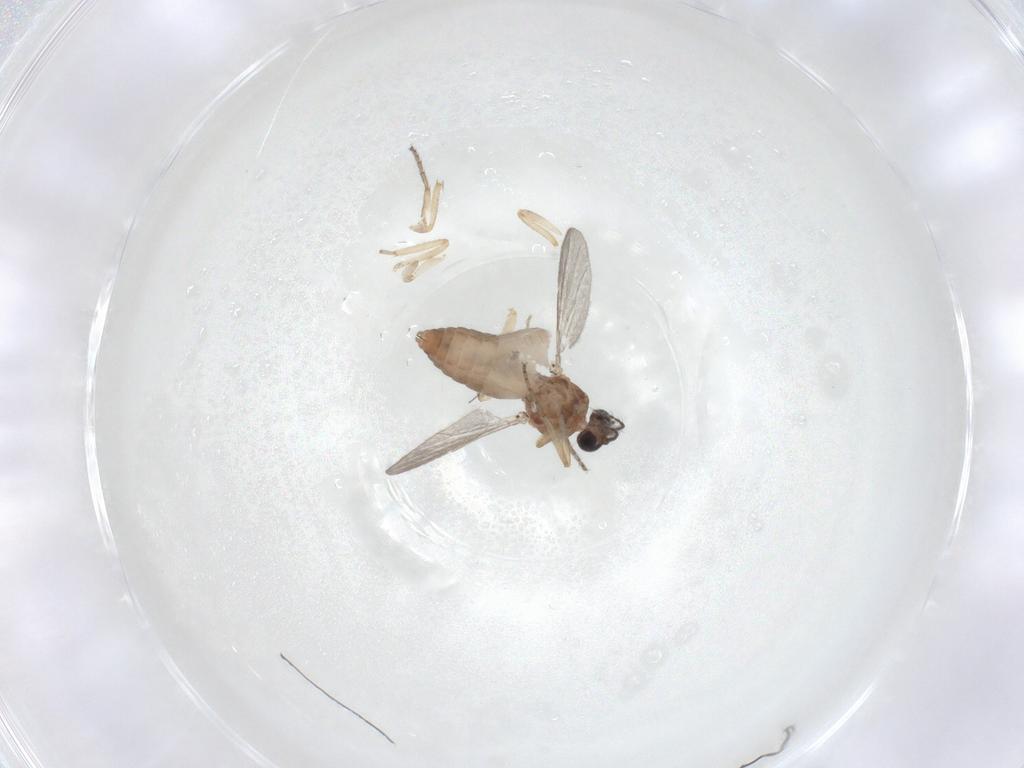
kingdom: Animalia
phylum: Arthropoda
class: Insecta
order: Diptera
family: Ceratopogonidae
